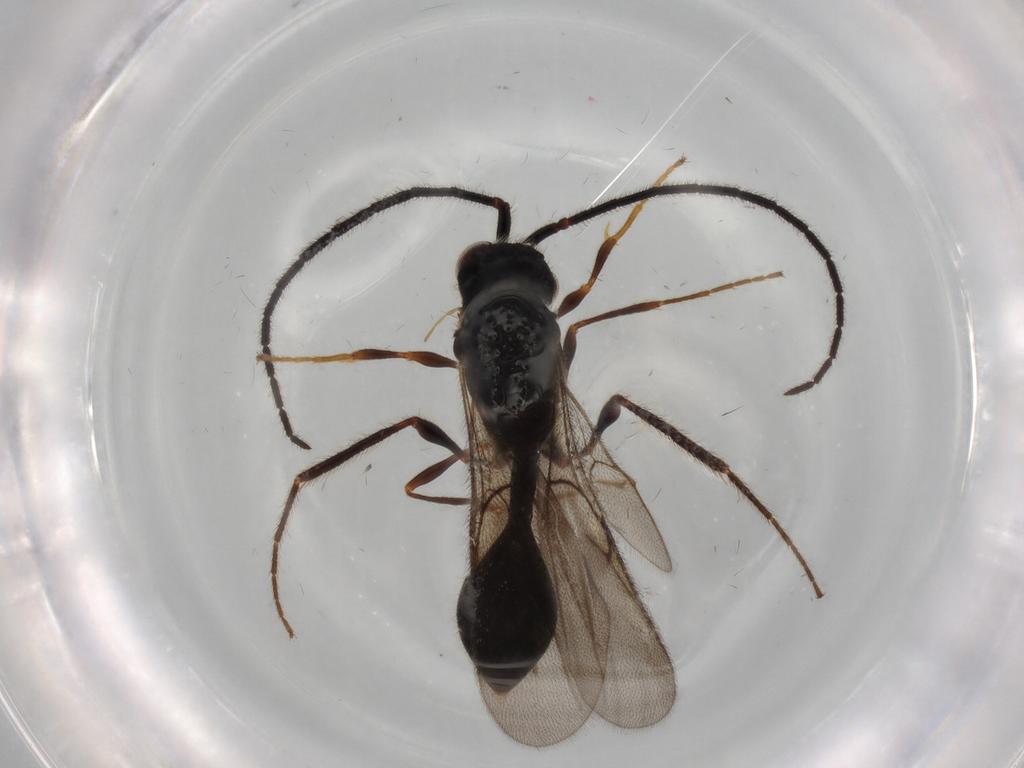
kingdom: Animalia
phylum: Arthropoda
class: Insecta
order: Hymenoptera
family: Diapriidae
